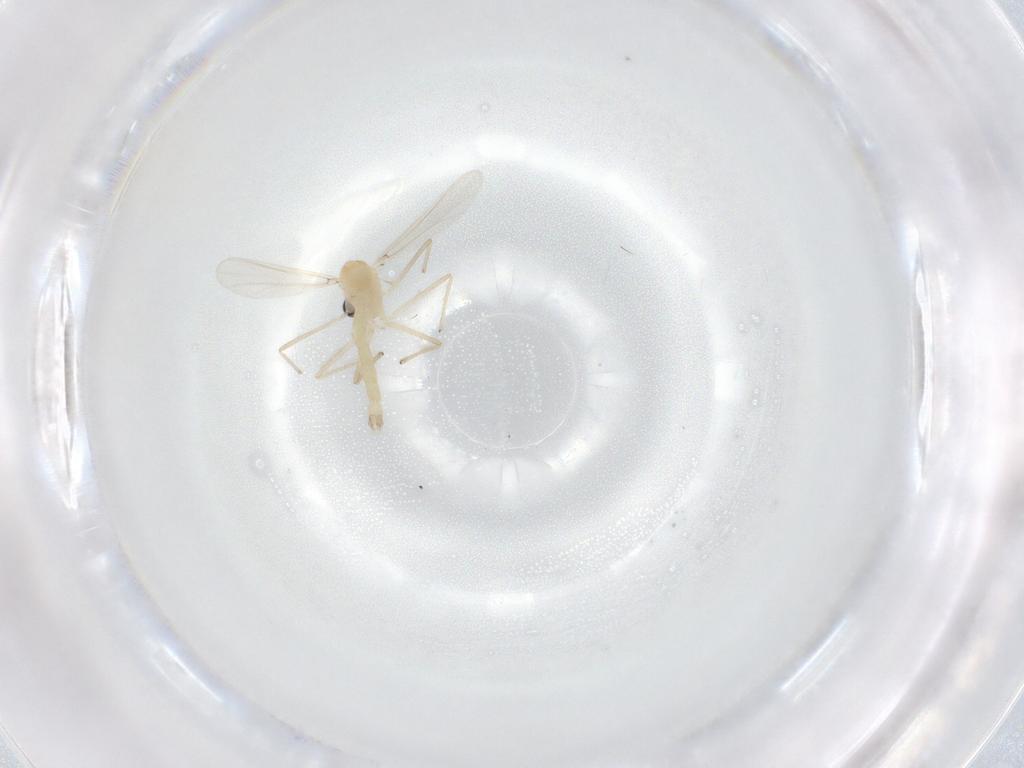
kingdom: Animalia
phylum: Arthropoda
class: Insecta
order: Diptera
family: Chironomidae
